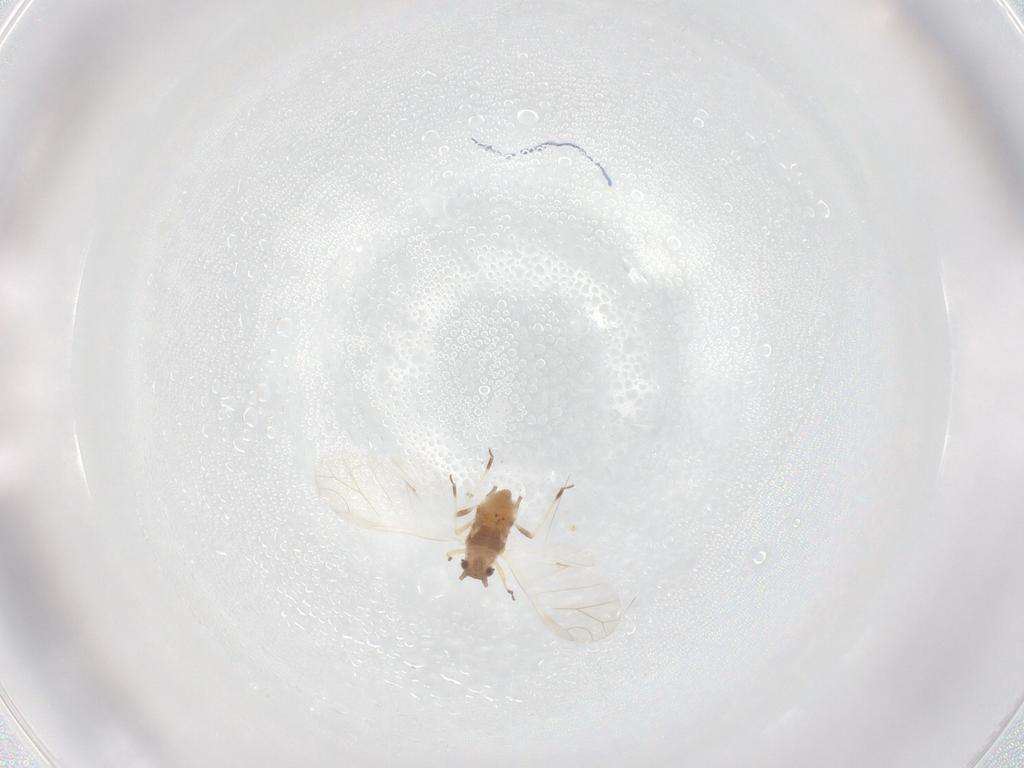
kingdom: Animalia
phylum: Arthropoda
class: Insecta
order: Hemiptera
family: Aphididae
